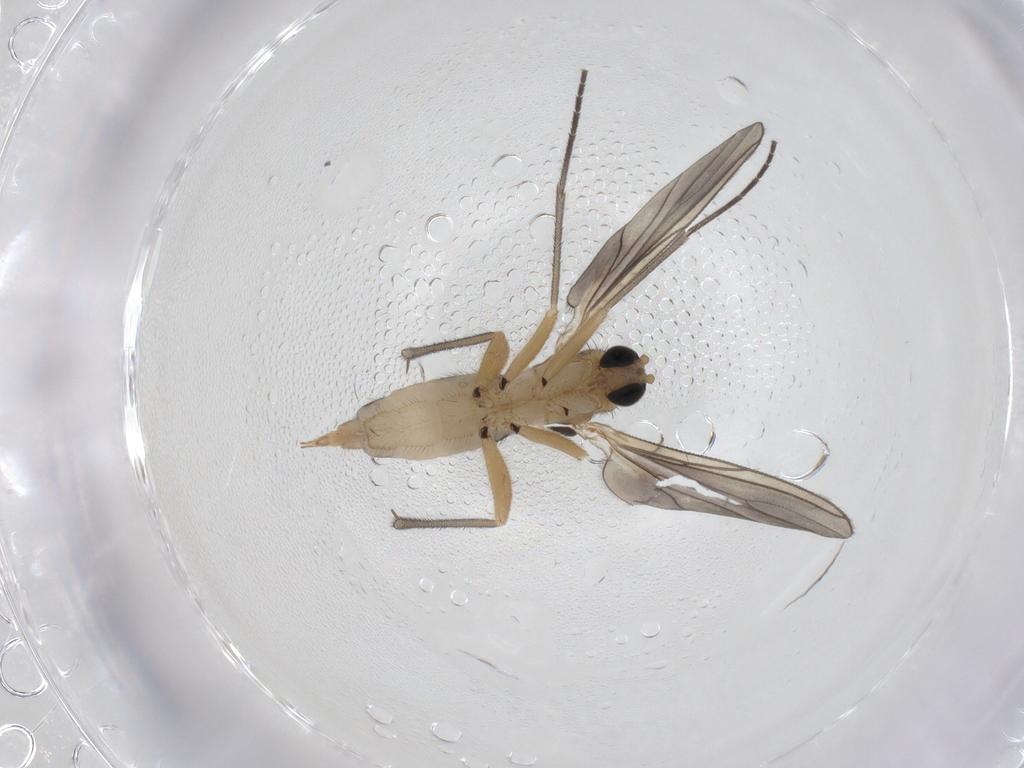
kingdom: Animalia
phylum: Arthropoda
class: Insecta
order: Diptera
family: Sciaridae
